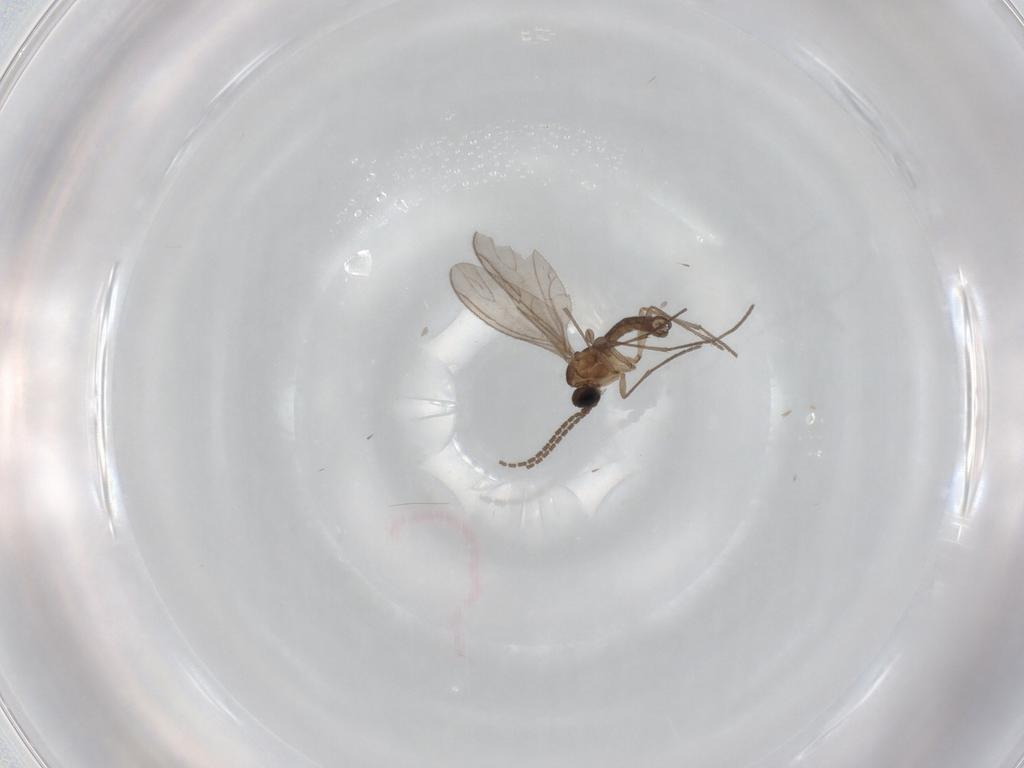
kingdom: Animalia
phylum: Arthropoda
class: Insecta
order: Diptera
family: Sciaridae
